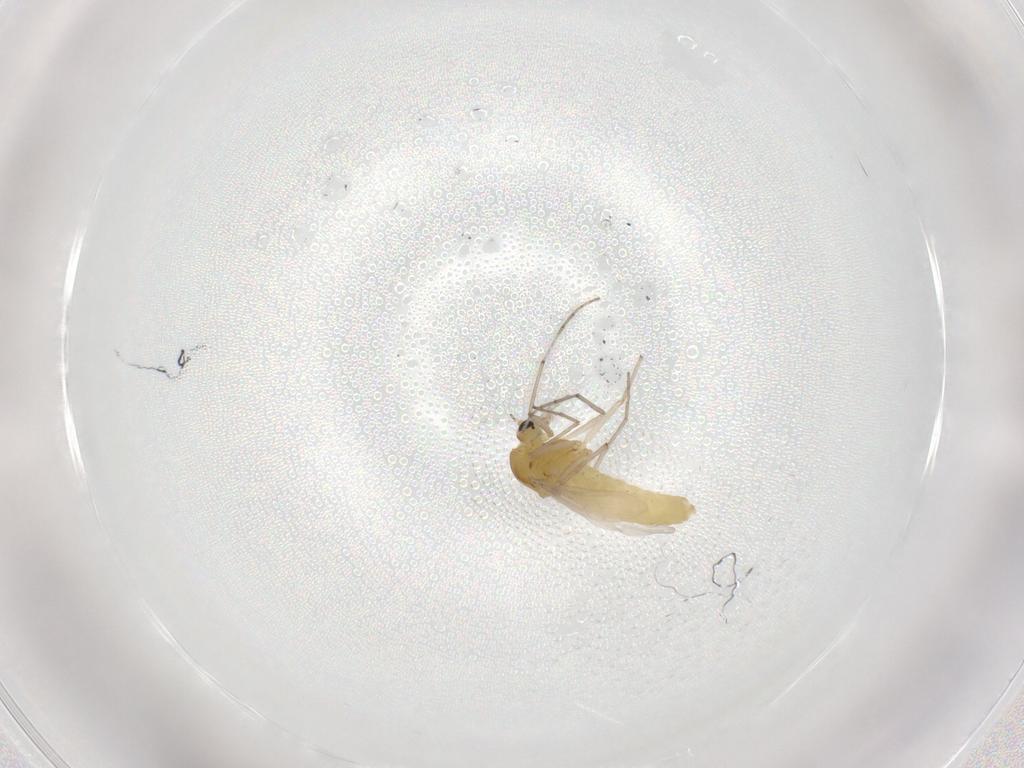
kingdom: Animalia
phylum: Arthropoda
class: Insecta
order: Diptera
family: Chironomidae
